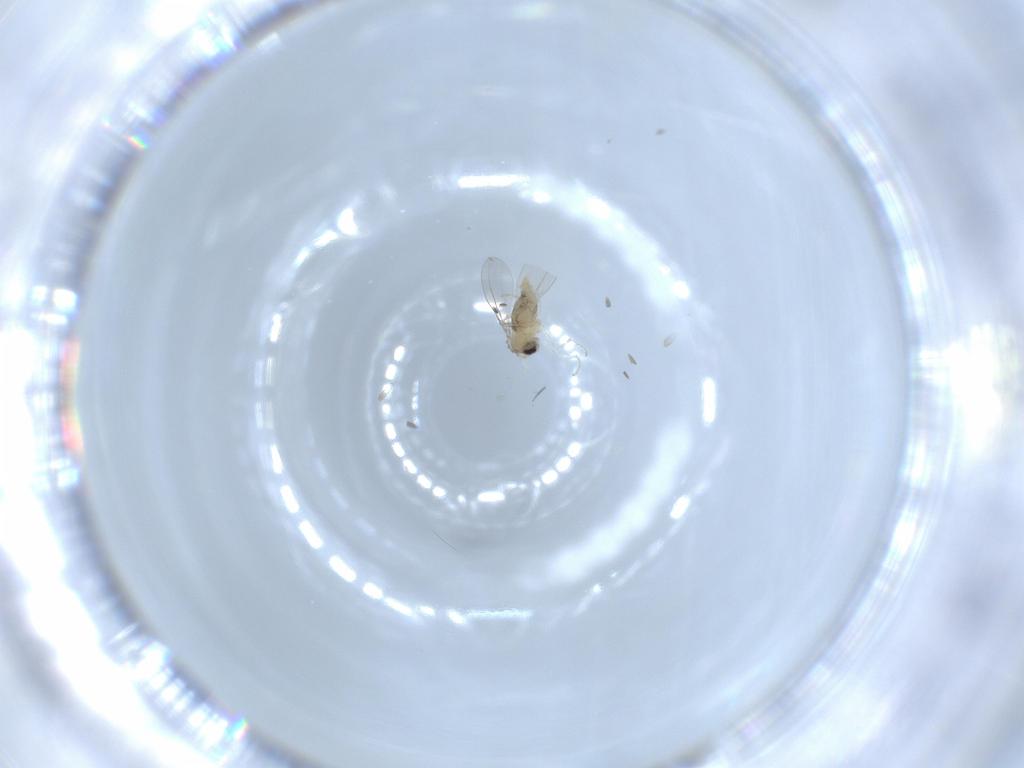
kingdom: Animalia
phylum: Arthropoda
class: Insecta
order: Diptera
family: Cecidomyiidae
